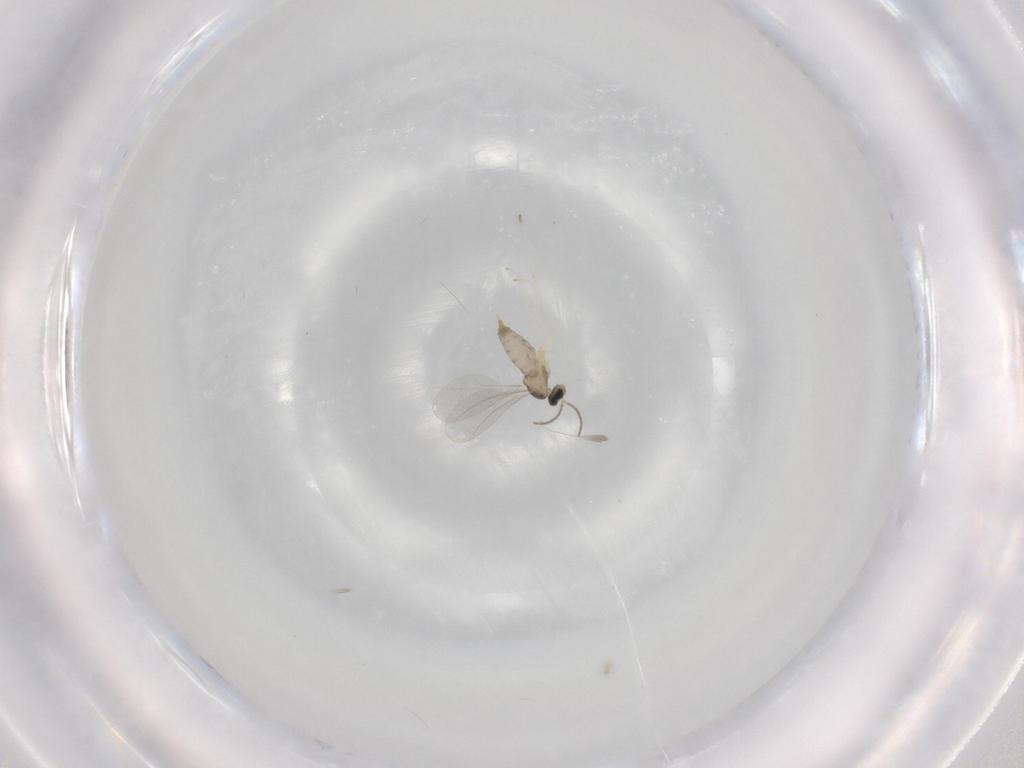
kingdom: Animalia
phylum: Arthropoda
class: Insecta
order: Diptera
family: Cecidomyiidae
